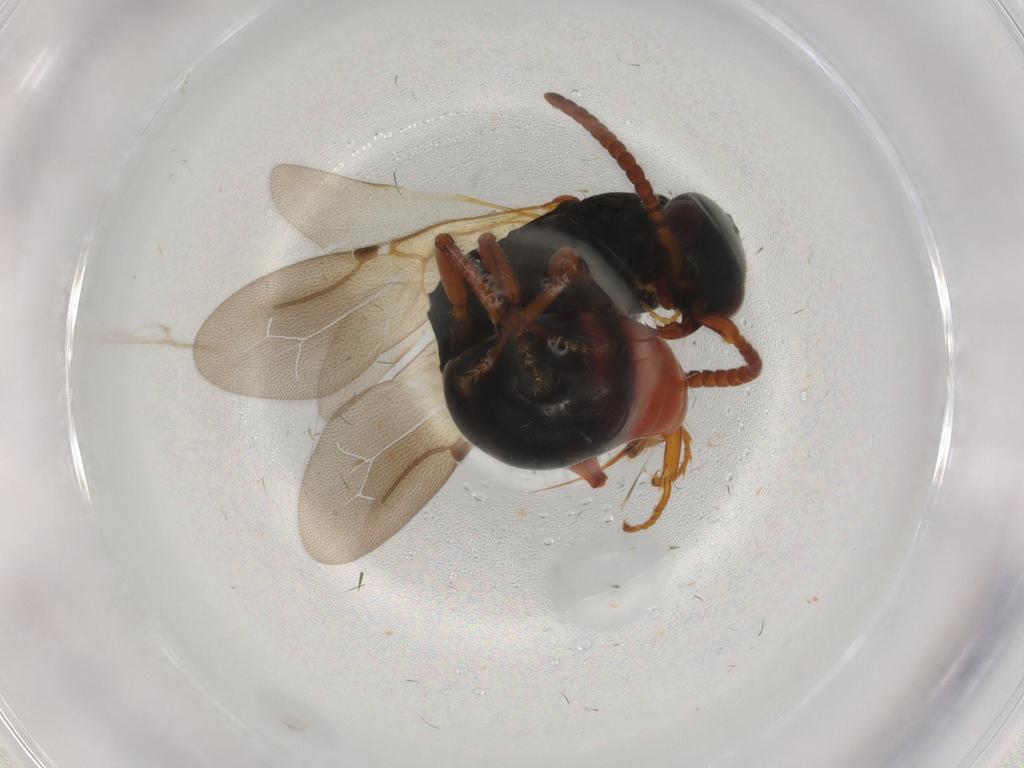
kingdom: Animalia
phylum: Arthropoda
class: Insecta
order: Hymenoptera
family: Bethylidae
